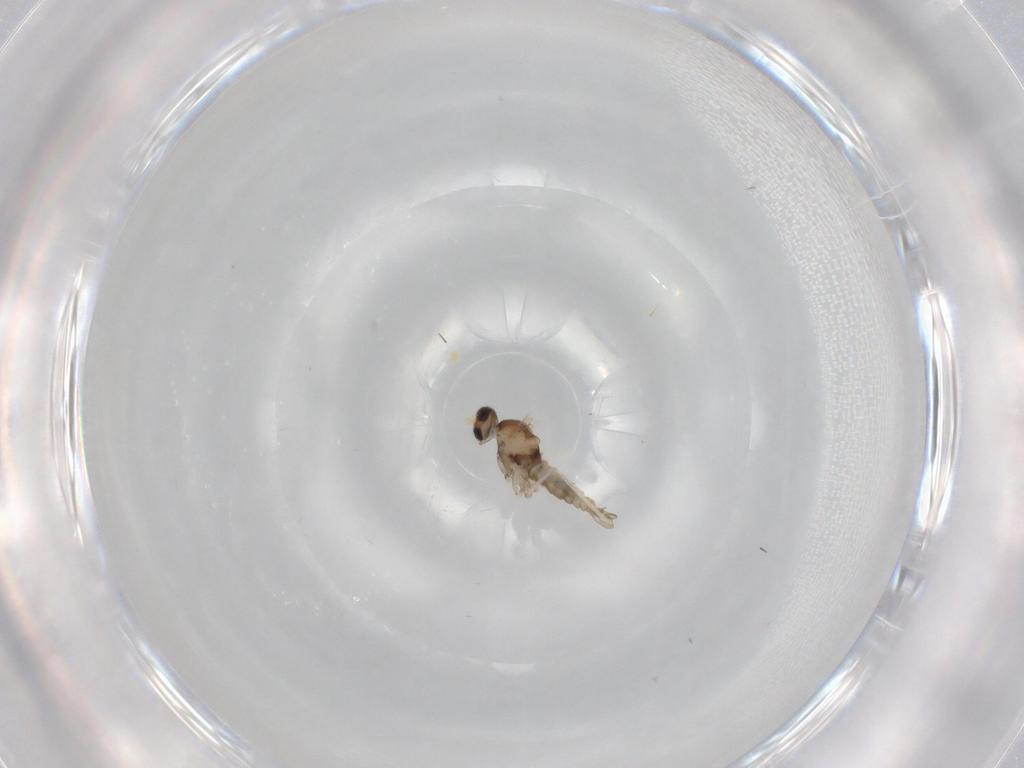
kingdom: Animalia
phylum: Arthropoda
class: Insecta
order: Diptera
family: Cecidomyiidae
